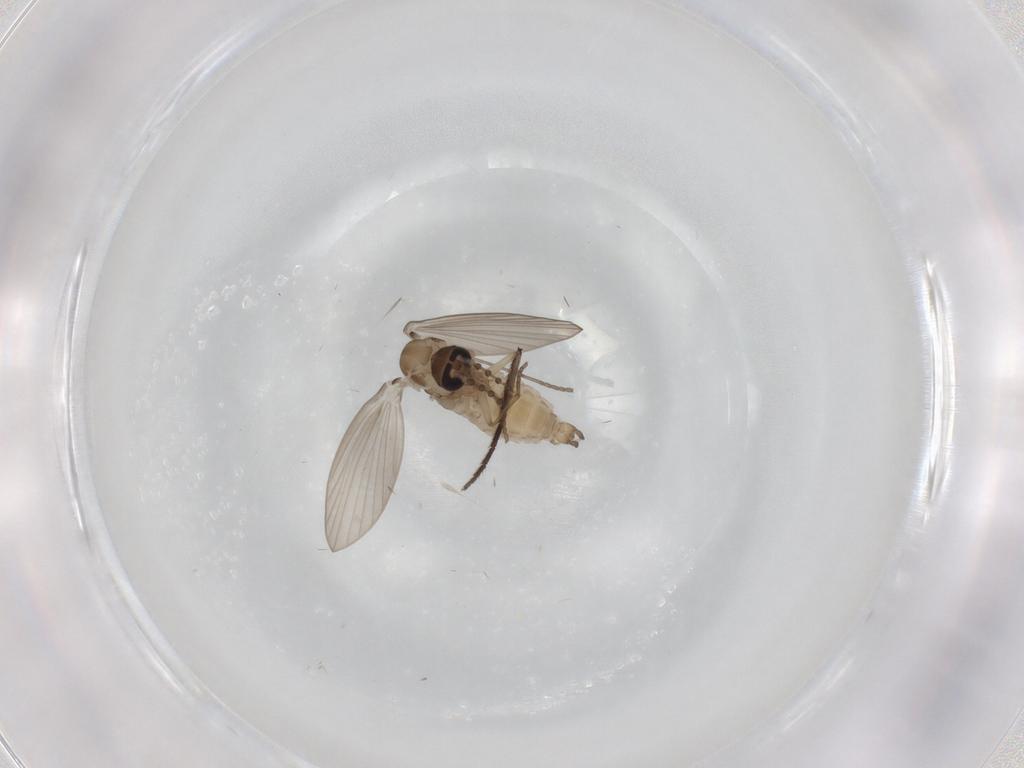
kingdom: Animalia
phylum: Arthropoda
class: Insecta
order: Diptera
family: Psychodidae
